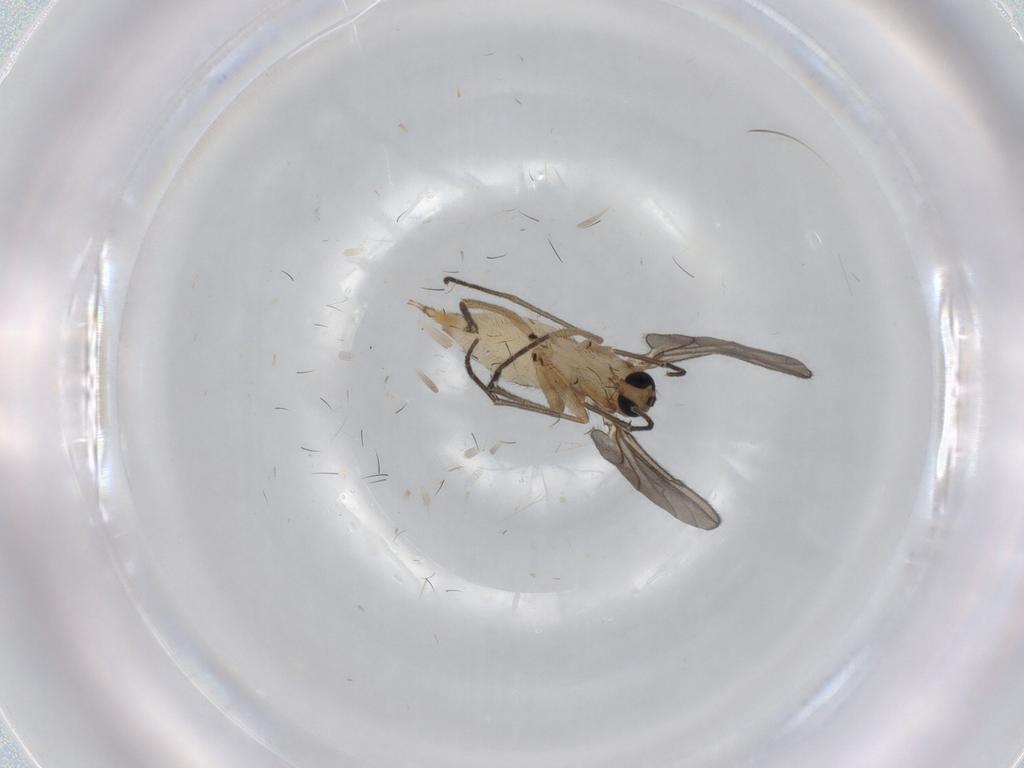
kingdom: Animalia
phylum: Arthropoda
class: Insecta
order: Diptera
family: Sciaridae
